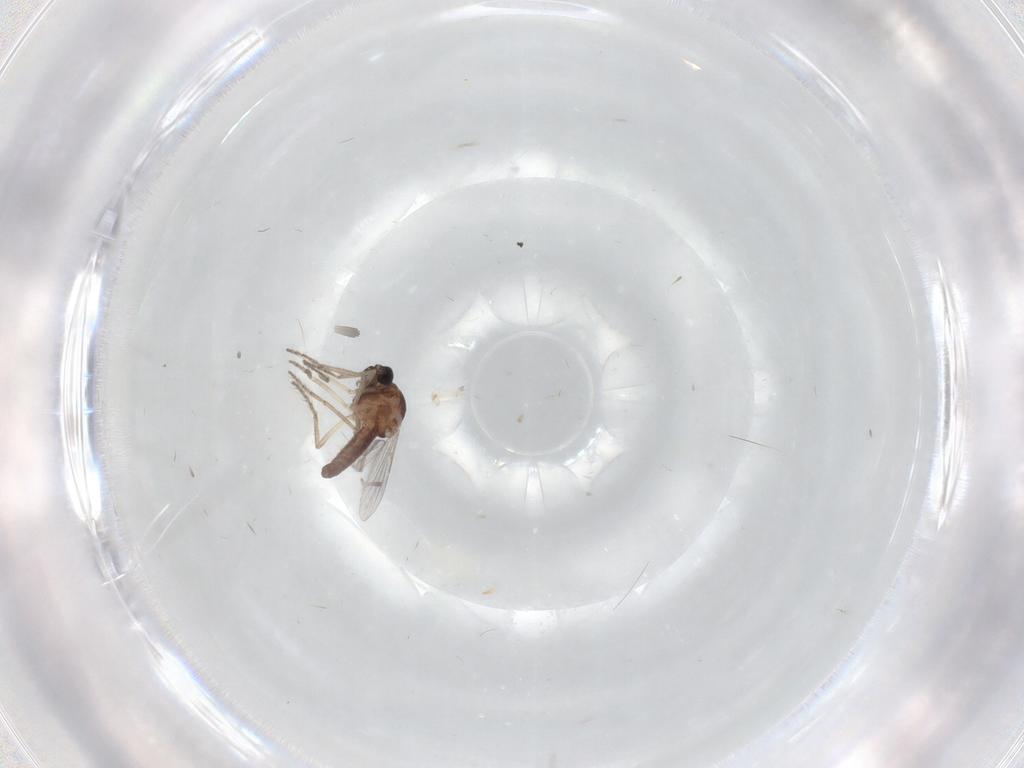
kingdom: Animalia
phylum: Arthropoda
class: Insecta
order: Diptera
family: Ceratopogonidae
